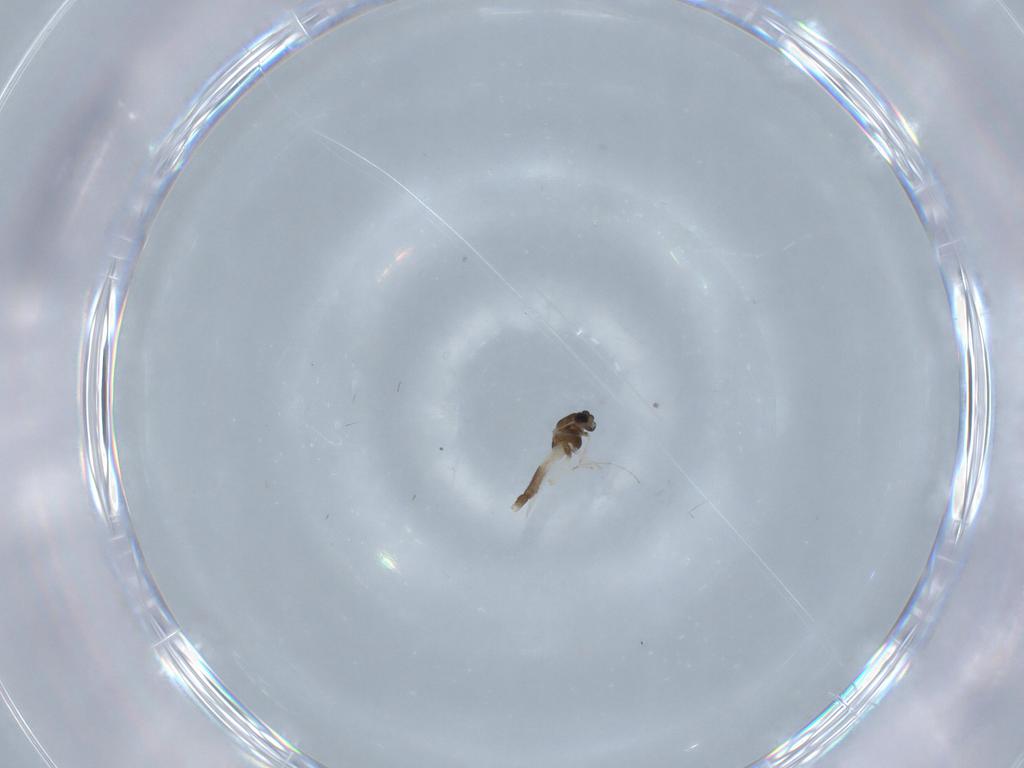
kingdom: Animalia
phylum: Arthropoda
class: Insecta
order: Diptera
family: Chironomidae
